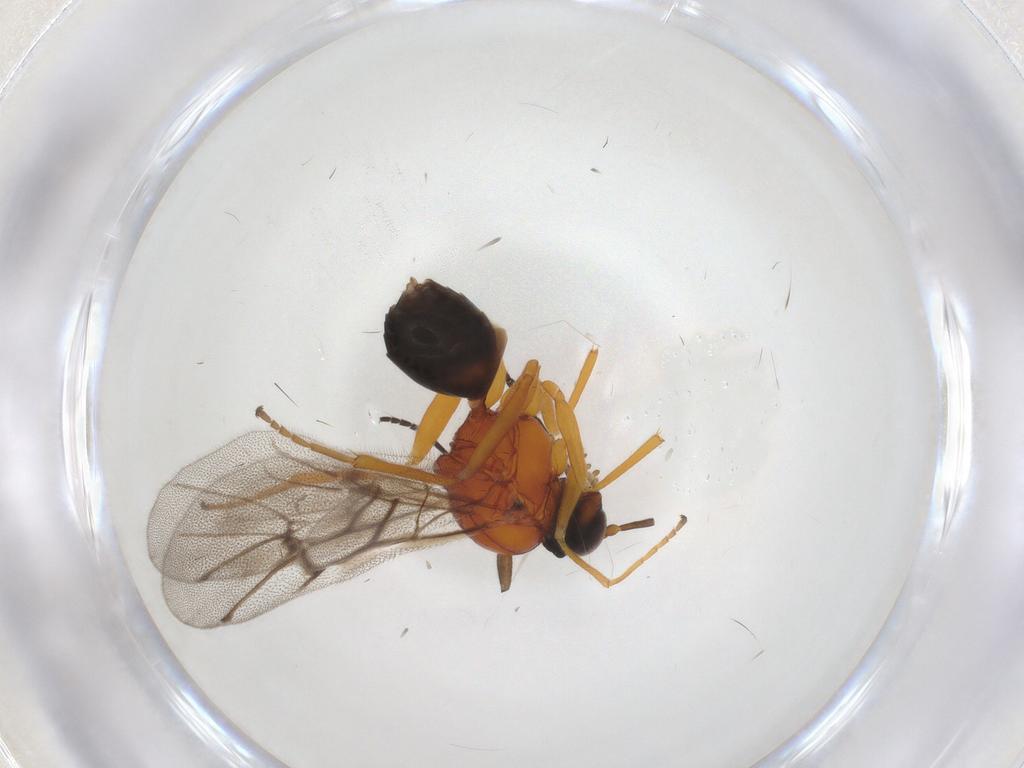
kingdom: Animalia
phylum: Arthropoda
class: Insecta
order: Hymenoptera
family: Cynipidae
